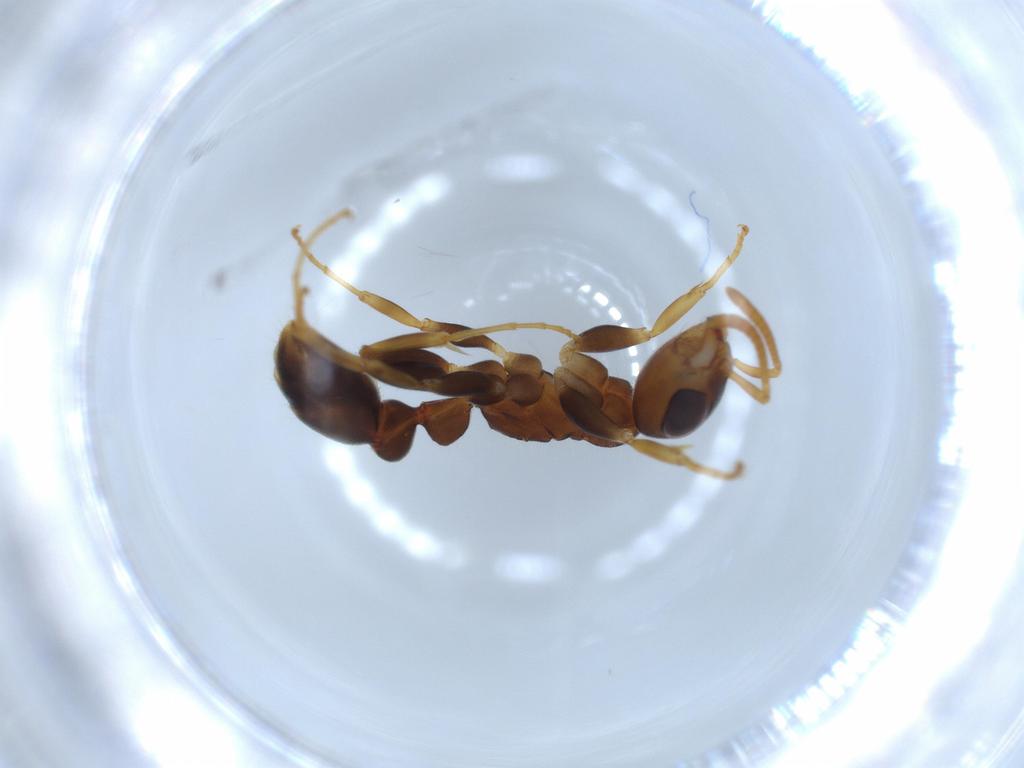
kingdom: Animalia
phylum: Arthropoda
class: Insecta
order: Hymenoptera
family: Formicidae
